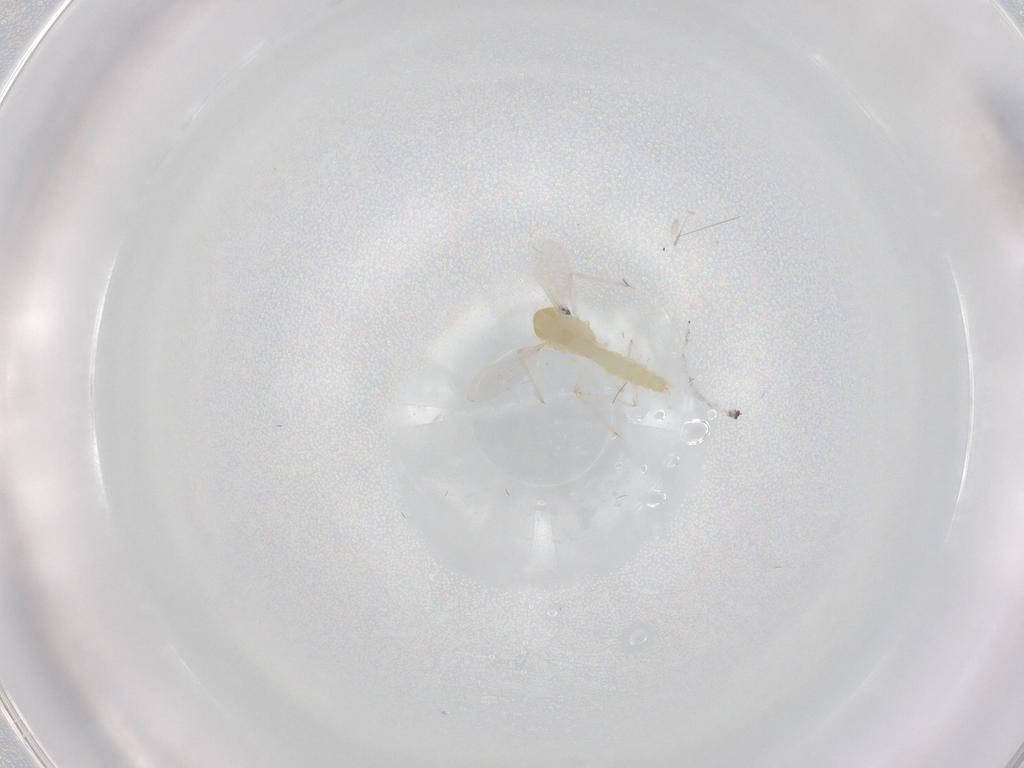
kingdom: Animalia
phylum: Arthropoda
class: Insecta
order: Diptera
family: Chironomidae
